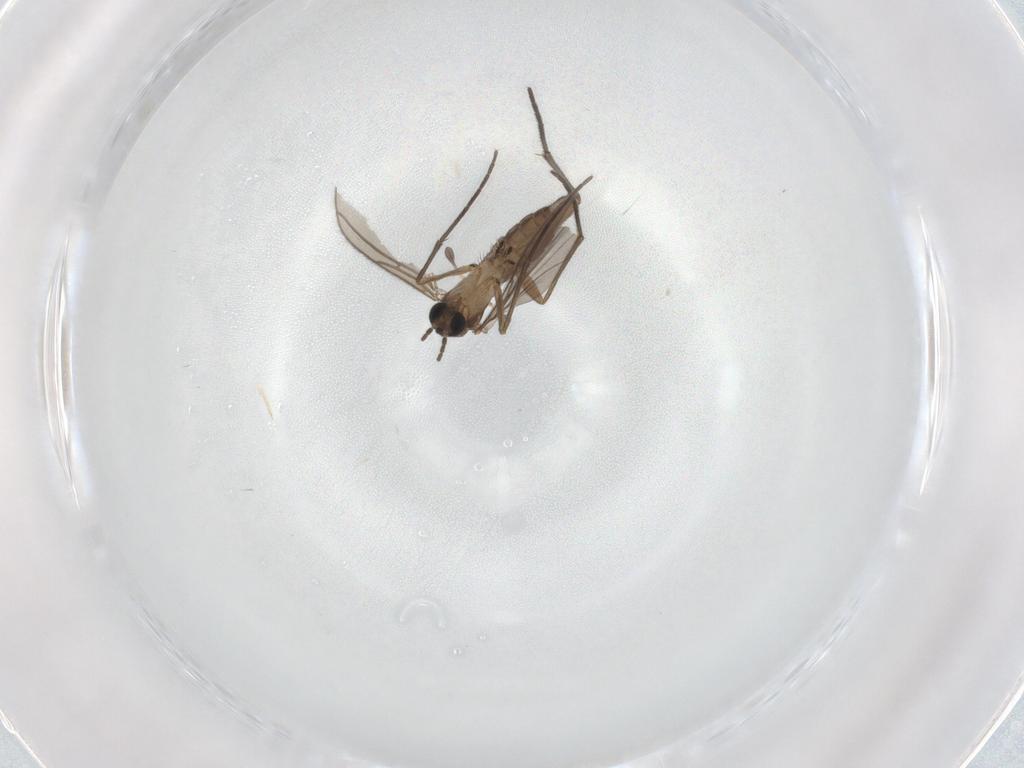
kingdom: Animalia
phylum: Arthropoda
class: Insecta
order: Diptera
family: Sciaridae
